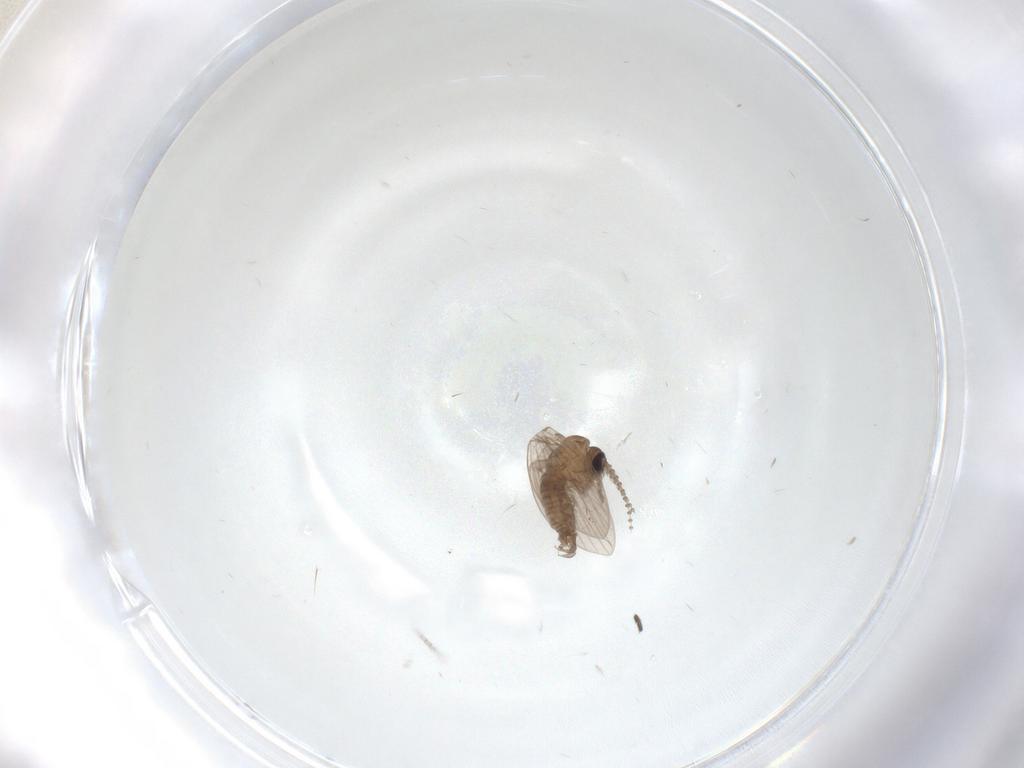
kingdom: Animalia
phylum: Arthropoda
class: Insecta
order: Diptera
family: Psychodidae
